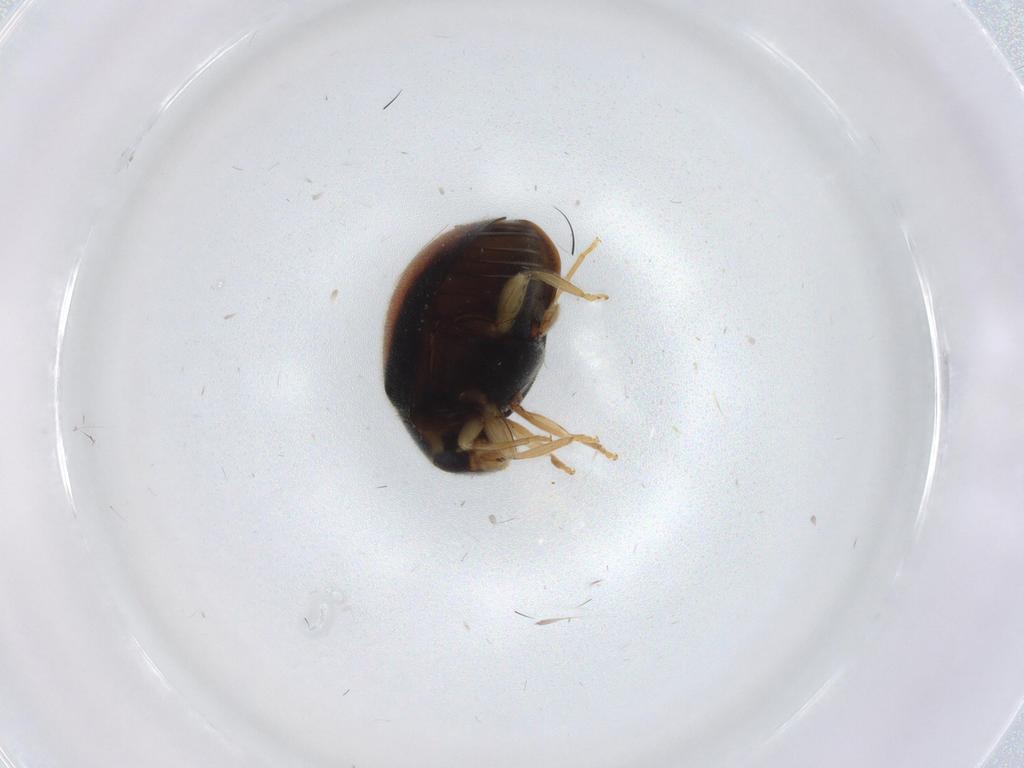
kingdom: Animalia
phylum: Arthropoda
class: Insecta
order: Coleoptera
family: Coccinellidae
